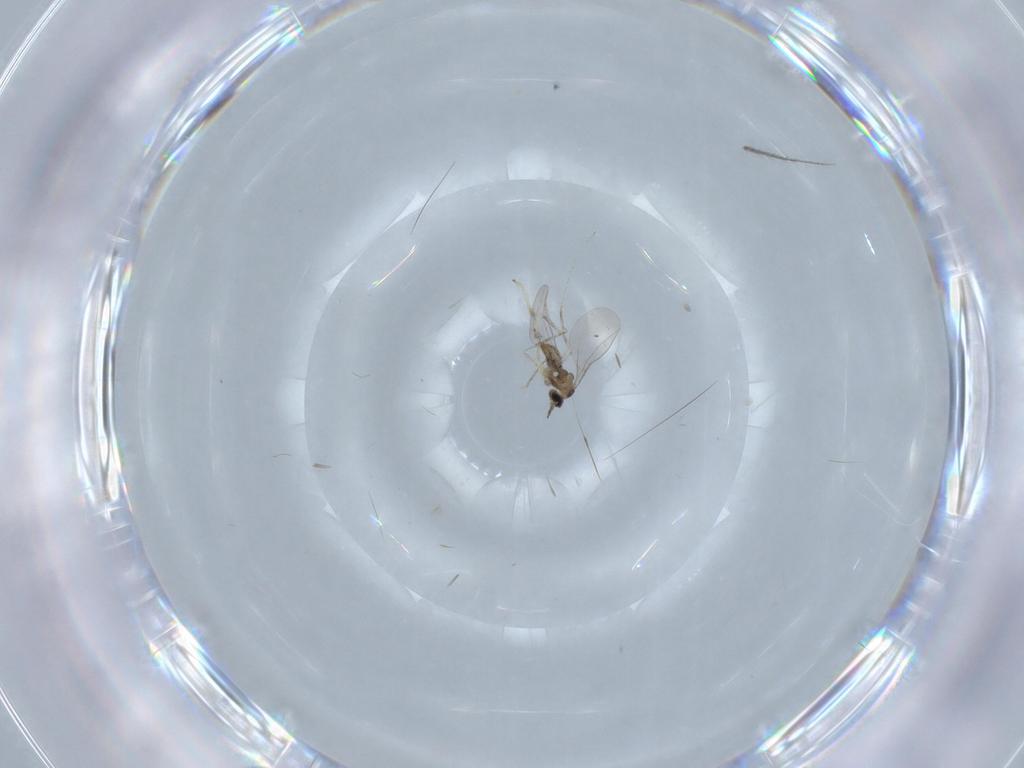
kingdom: Animalia
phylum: Arthropoda
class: Insecta
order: Diptera
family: Dolichopodidae
